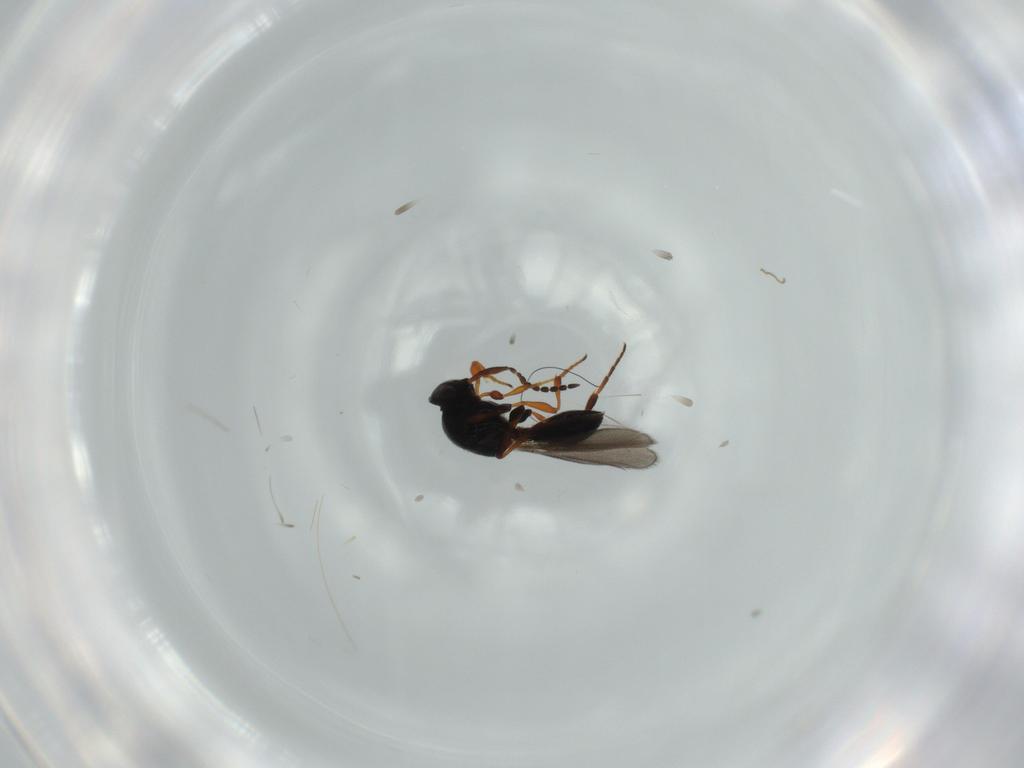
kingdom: Animalia
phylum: Arthropoda
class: Insecta
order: Hymenoptera
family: Platygastridae
